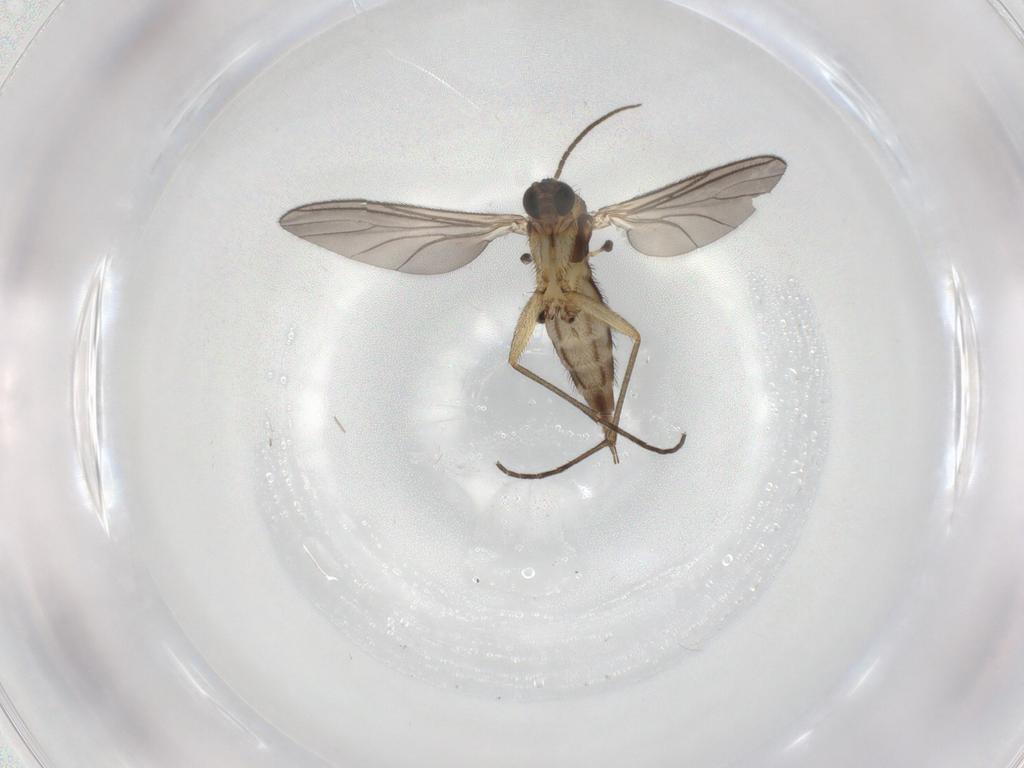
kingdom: Animalia
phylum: Arthropoda
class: Insecta
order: Diptera
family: Sciaridae
